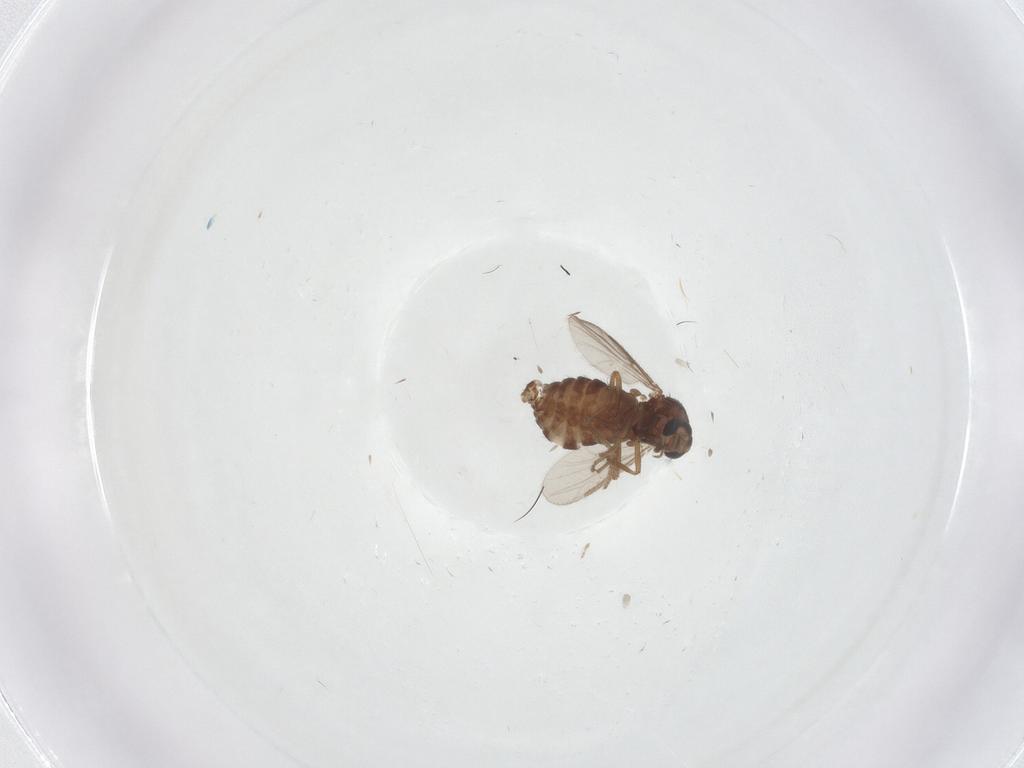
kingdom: Animalia
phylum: Arthropoda
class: Insecta
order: Diptera
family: Ceratopogonidae
